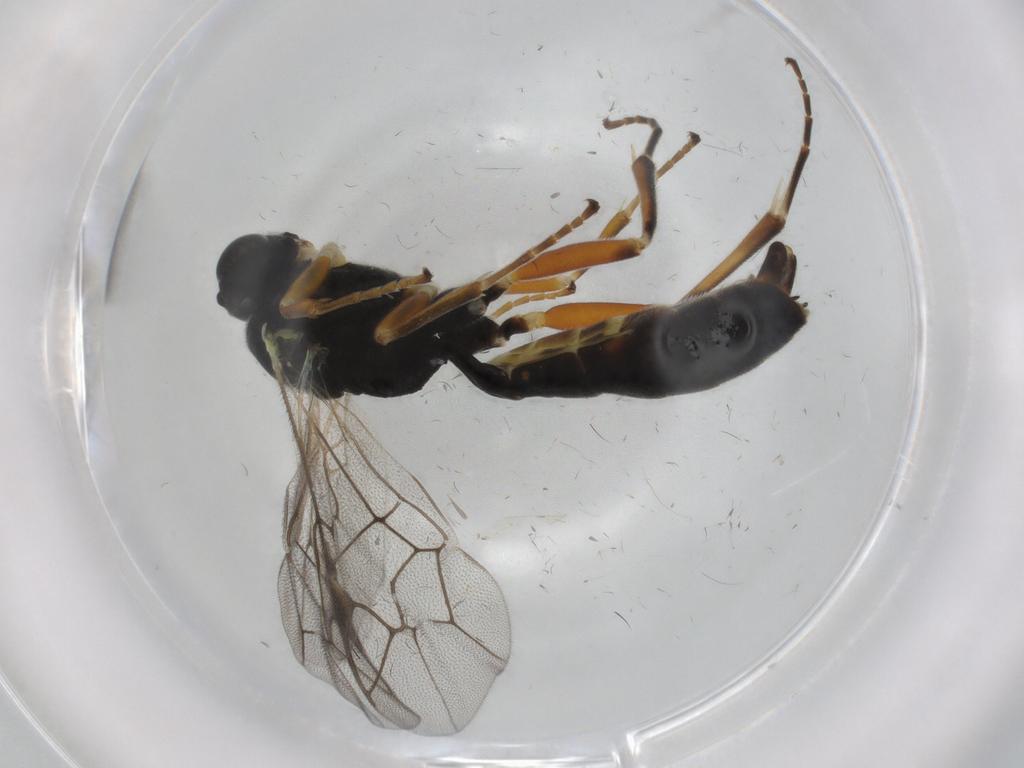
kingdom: Animalia
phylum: Arthropoda
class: Insecta
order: Hymenoptera
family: Ichneumonidae
